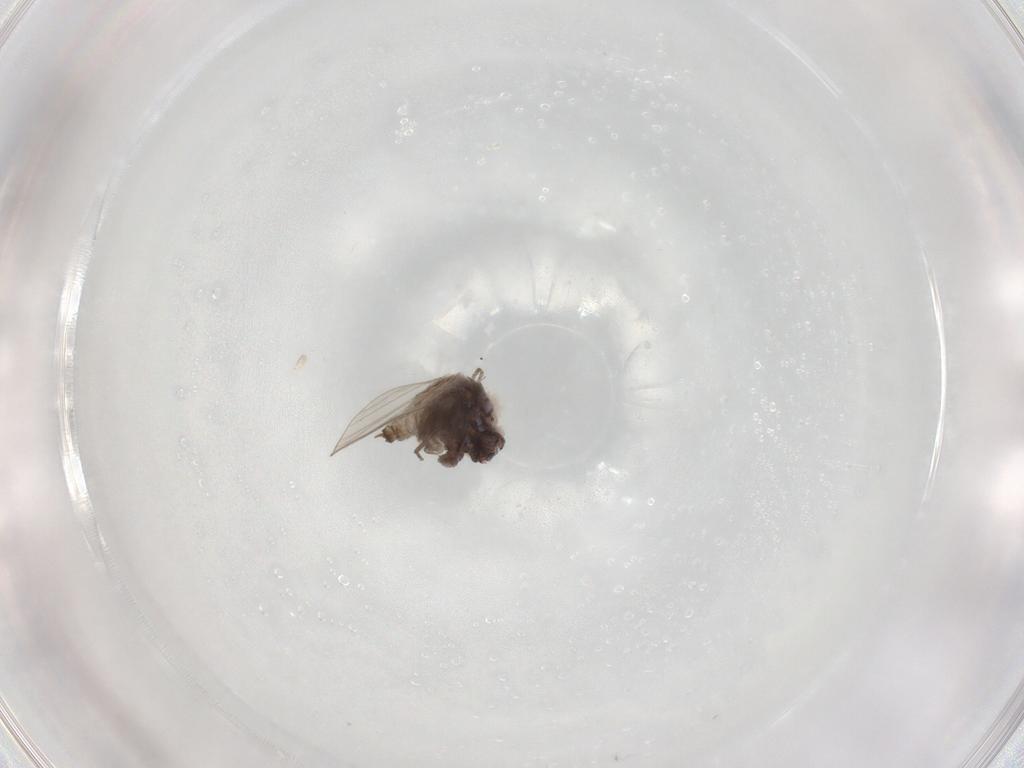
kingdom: Animalia
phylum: Arthropoda
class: Insecta
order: Diptera
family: Psychodidae
